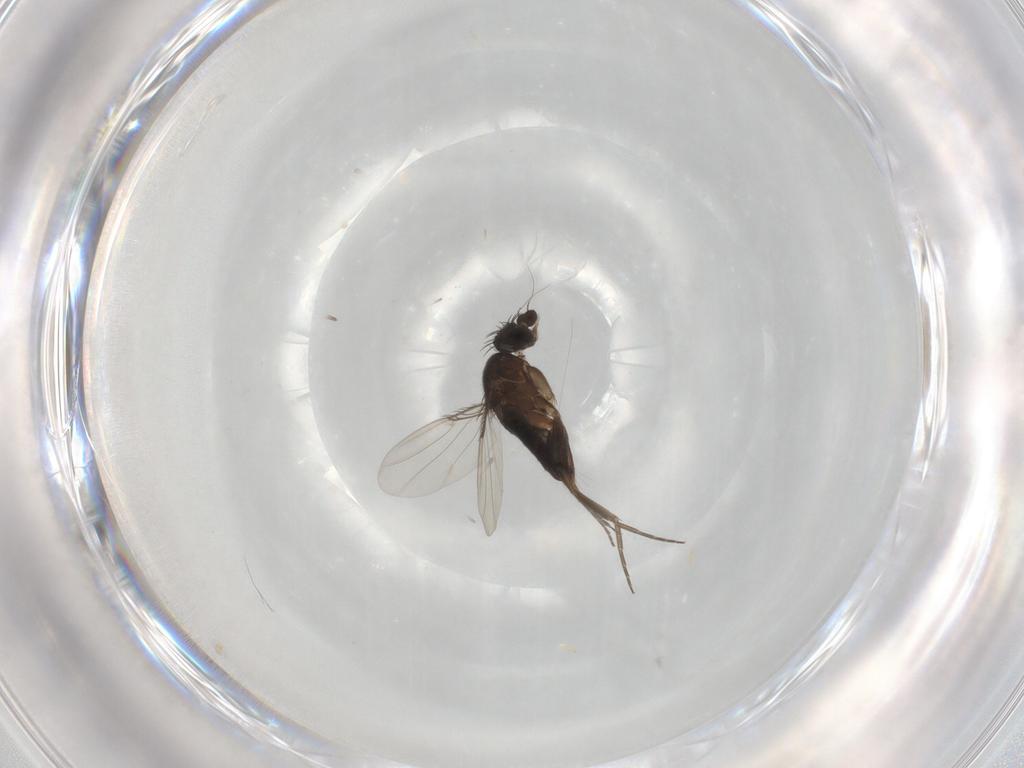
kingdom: Animalia
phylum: Arthropoda
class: Insecta
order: Diptera
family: Phoridae
